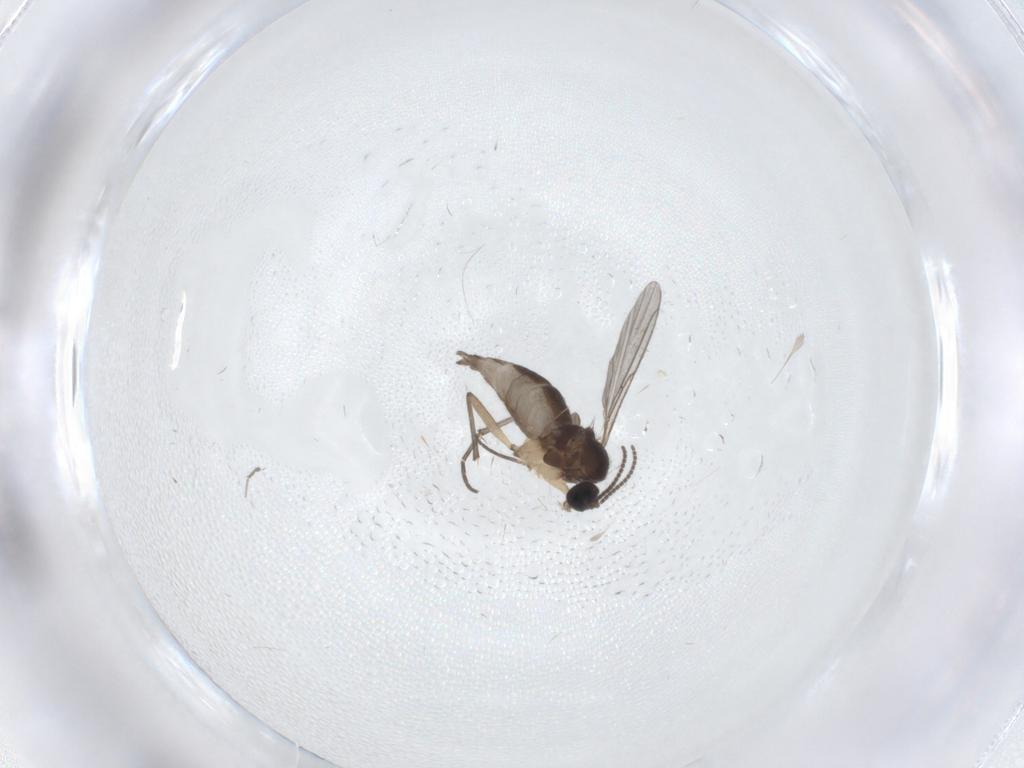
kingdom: Animalia
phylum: Arthropoda
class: Insecta
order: Diptera
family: Sciaridae
